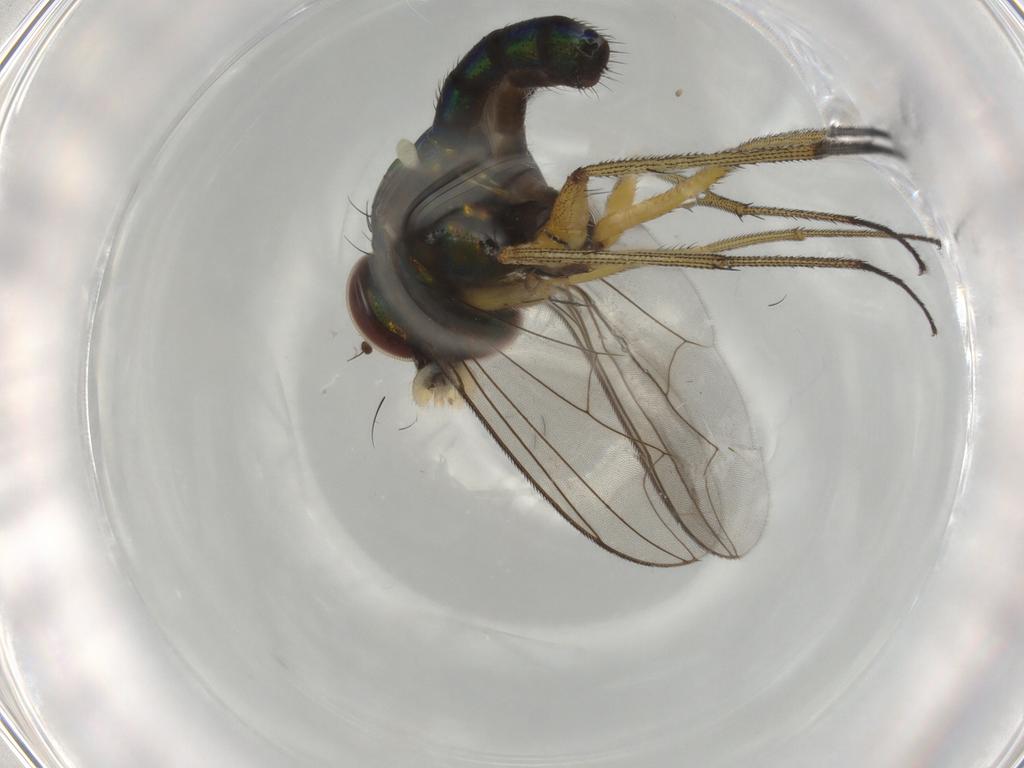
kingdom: Animalia
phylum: Arthropoda
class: Insecta
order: Diptera
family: Dolichopodidae
